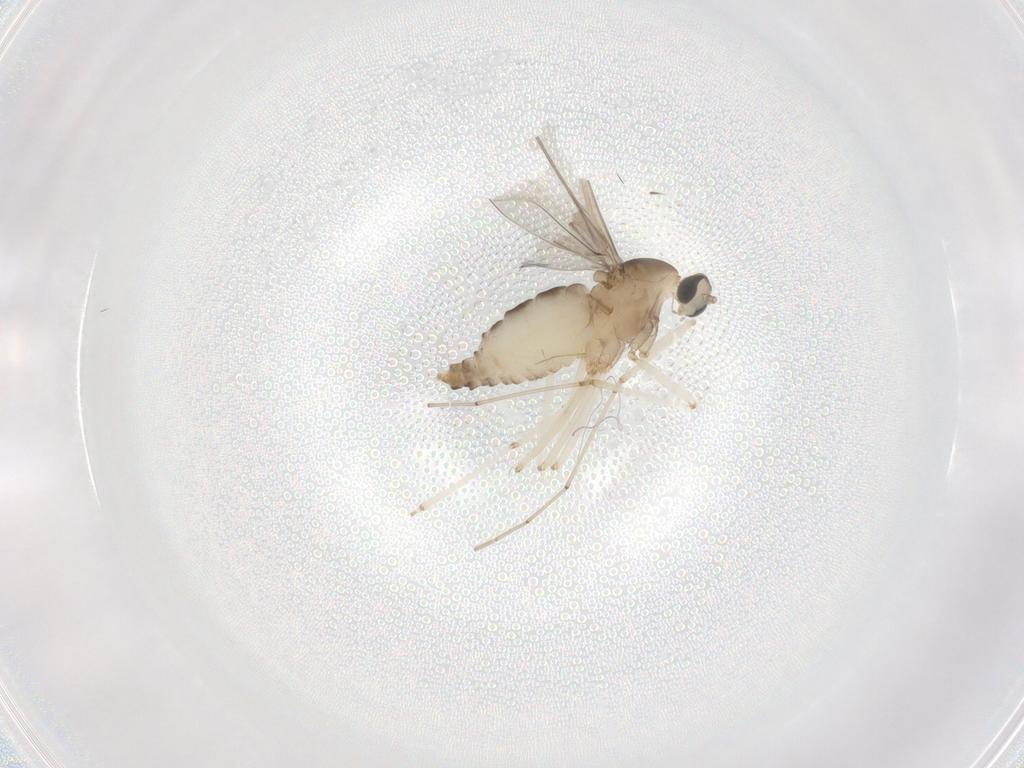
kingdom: Animalia
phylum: Arthropoda
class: Insecta
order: Diptera
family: Cecidomyiidae
